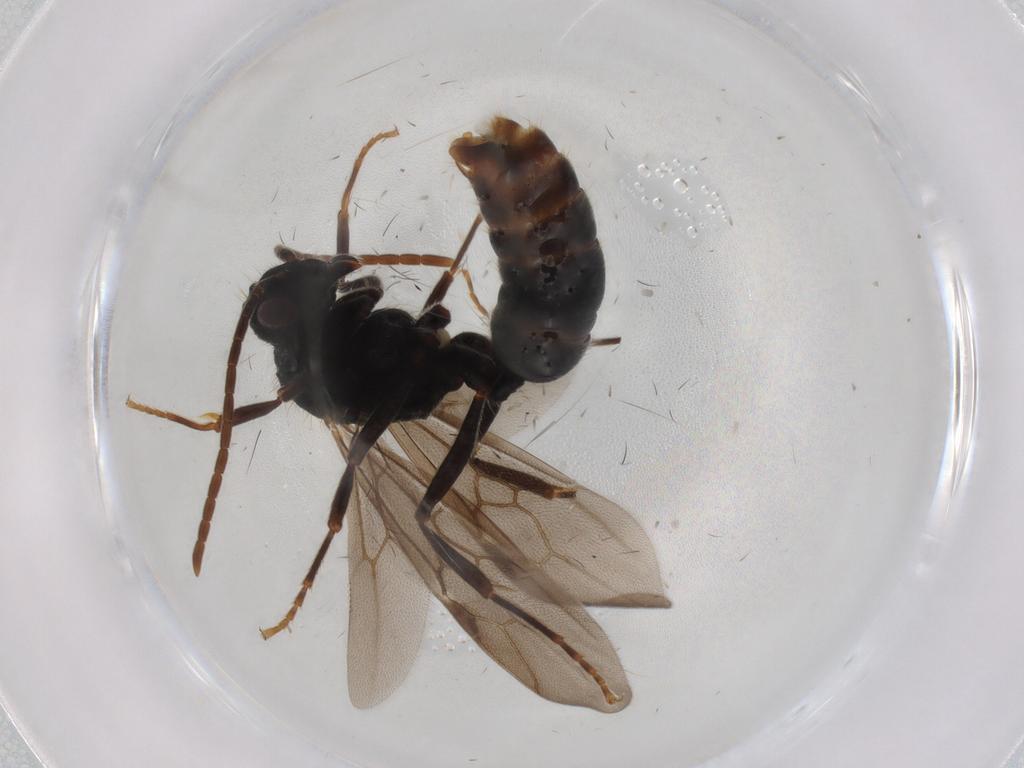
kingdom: Animalia
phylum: Arthropoda
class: Insecta
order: Hymenoptera
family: Formicidae
